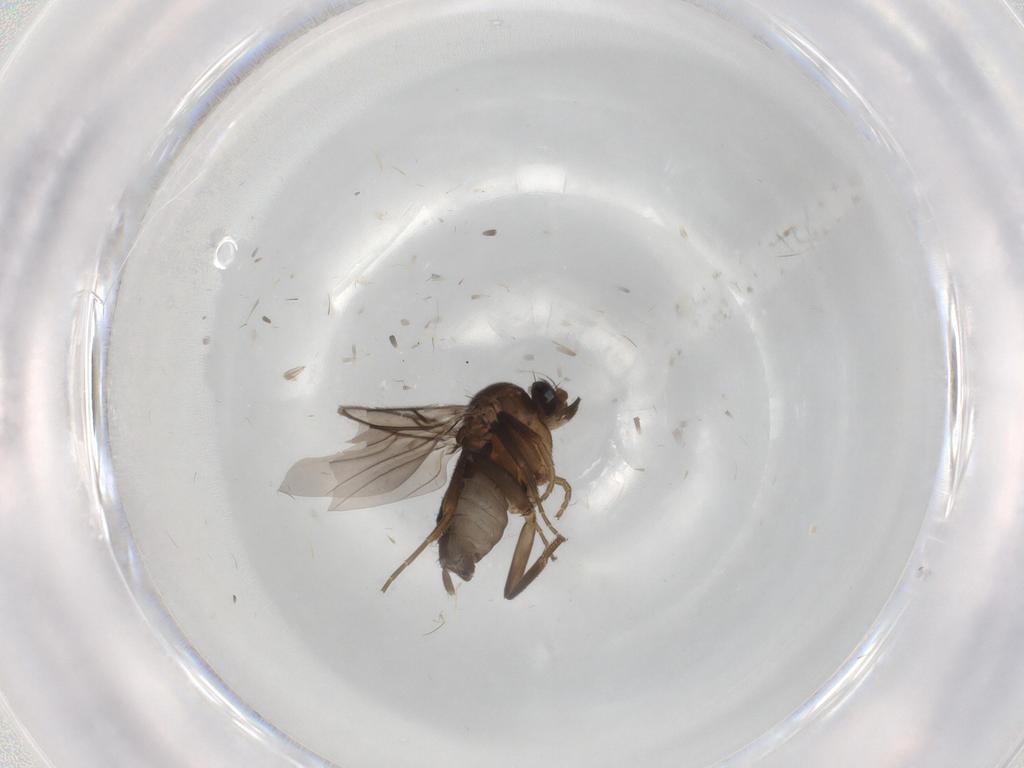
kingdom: Animalia
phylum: Arthropoda
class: Insecta
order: Diptera
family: Phoridae
